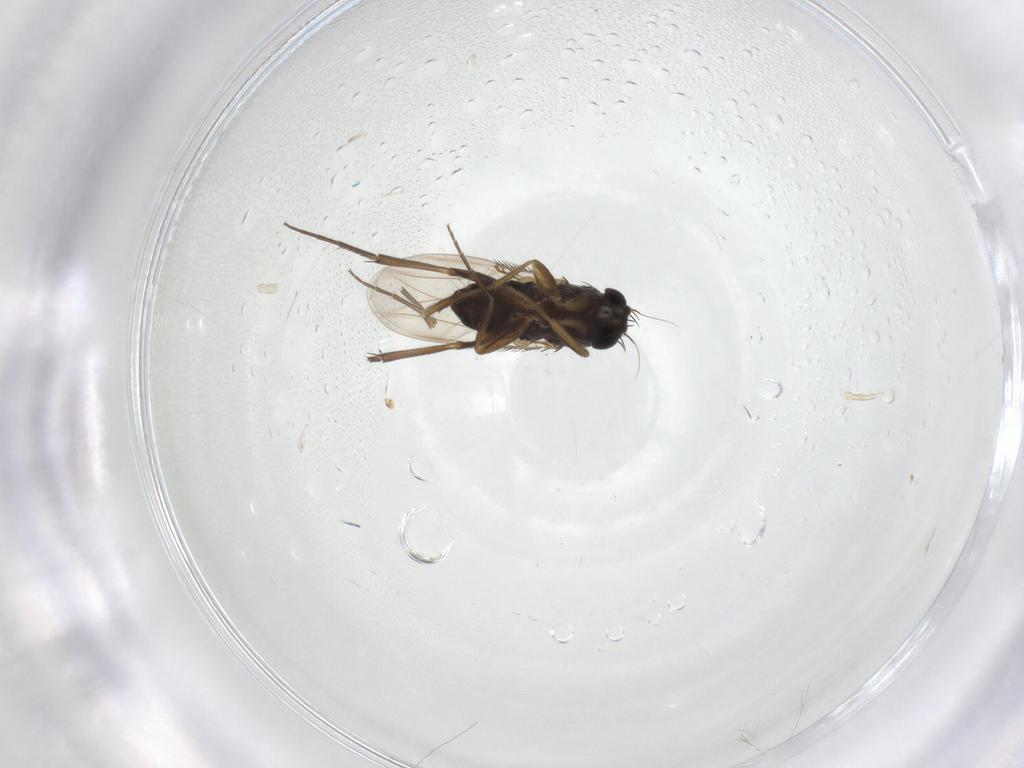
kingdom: Animalia
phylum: Arthropoda
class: Insecta
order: Diptera
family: Phoridae
